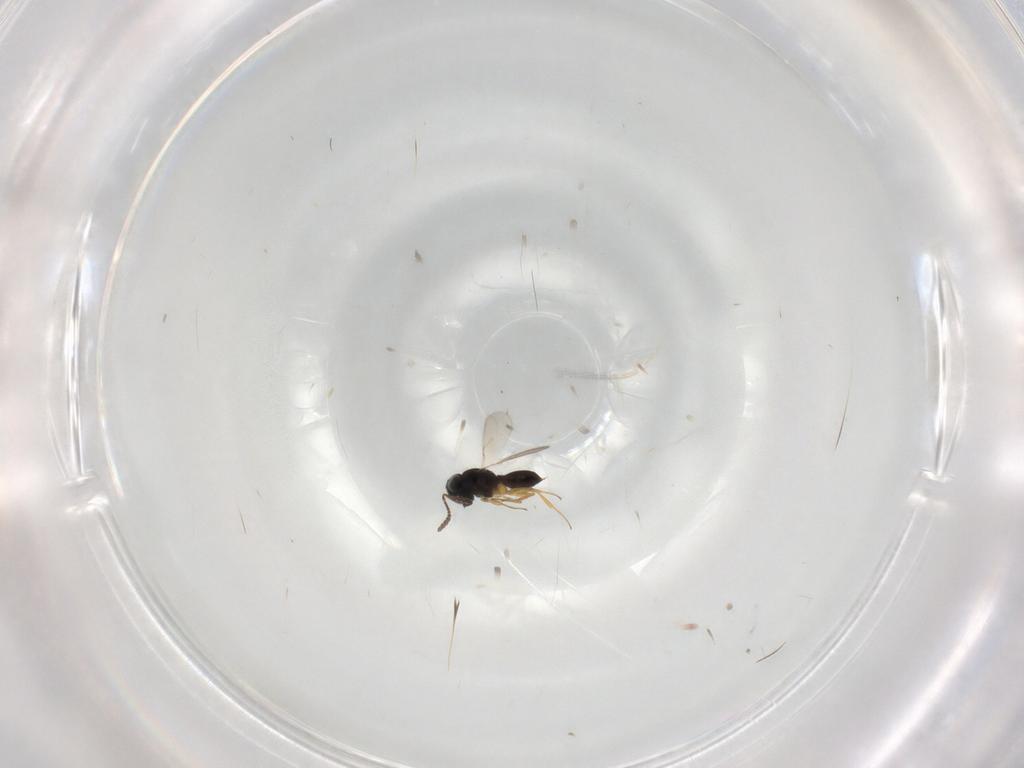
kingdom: Animalia
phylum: Arthropoda
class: Insecta
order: Hymenoptera
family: Scelionidae
